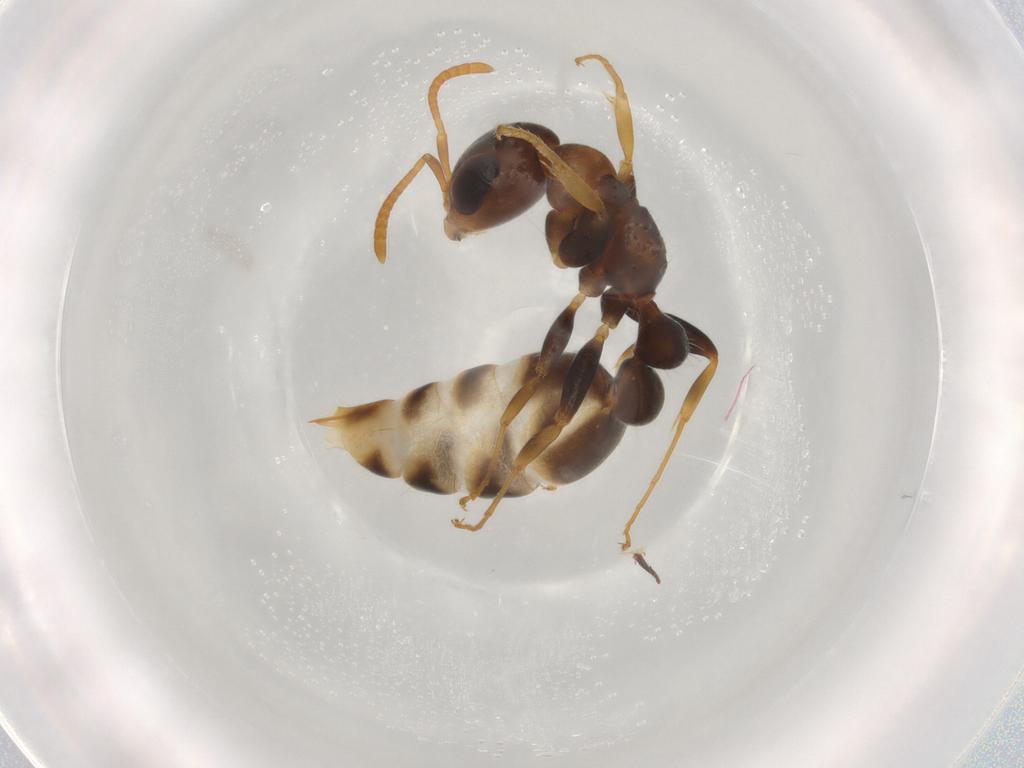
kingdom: Animalia
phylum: Arthropoda
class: Insecta
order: Hymenoptera
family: Formicidae
